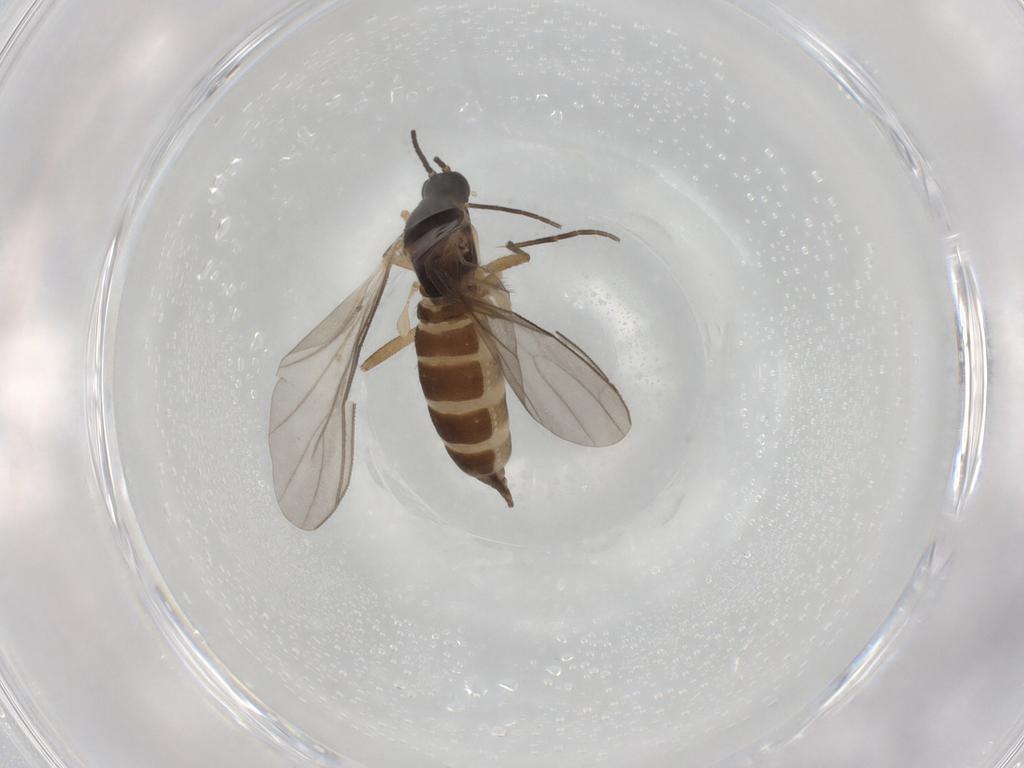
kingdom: Animalia
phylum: Arthropoda
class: Insecta
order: Diptera
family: Sciaridae
